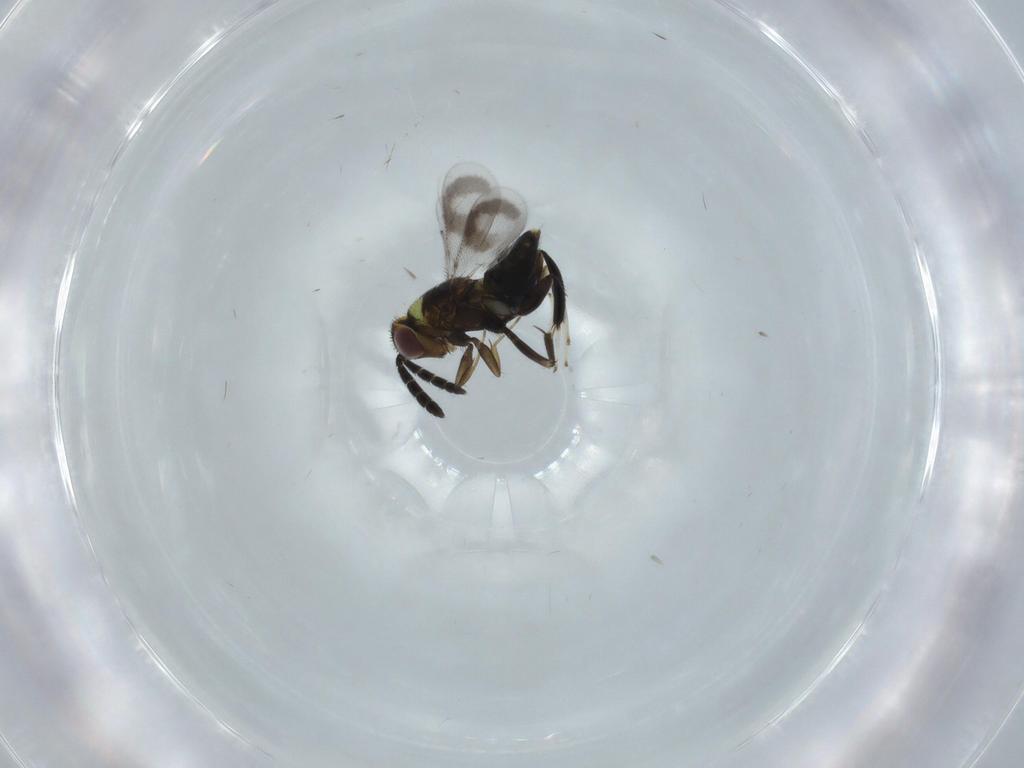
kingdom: Animalia
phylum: Arthropoda
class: Insecta
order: Hymenoptera
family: Aphelinidae
